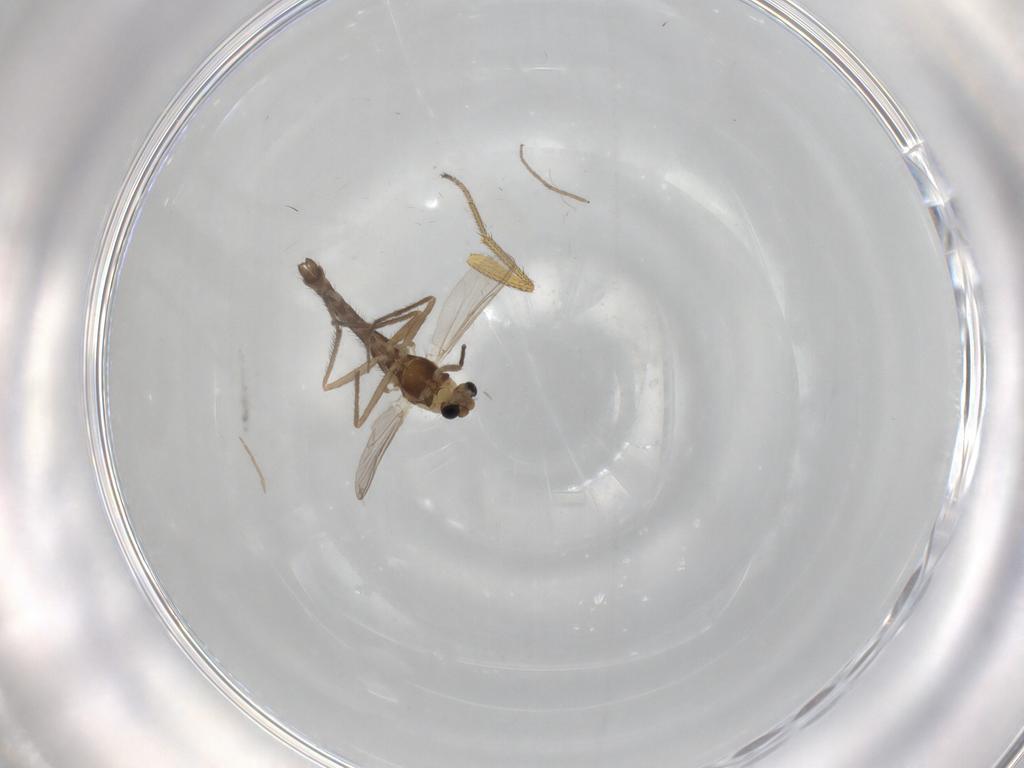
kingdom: Animalia
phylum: Arthropoda
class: Insecta
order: Diptera
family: Chironomidae
